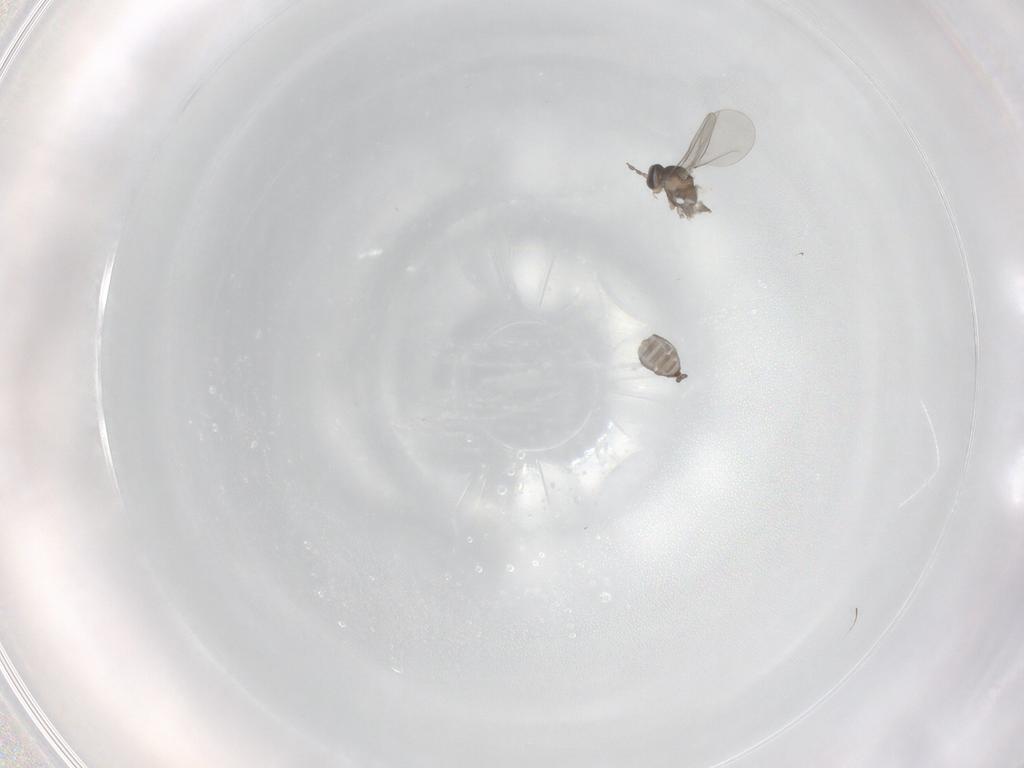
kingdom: Animalia
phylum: Arthropoda
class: Insecta
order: Diptera
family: Cecidomyiidae
